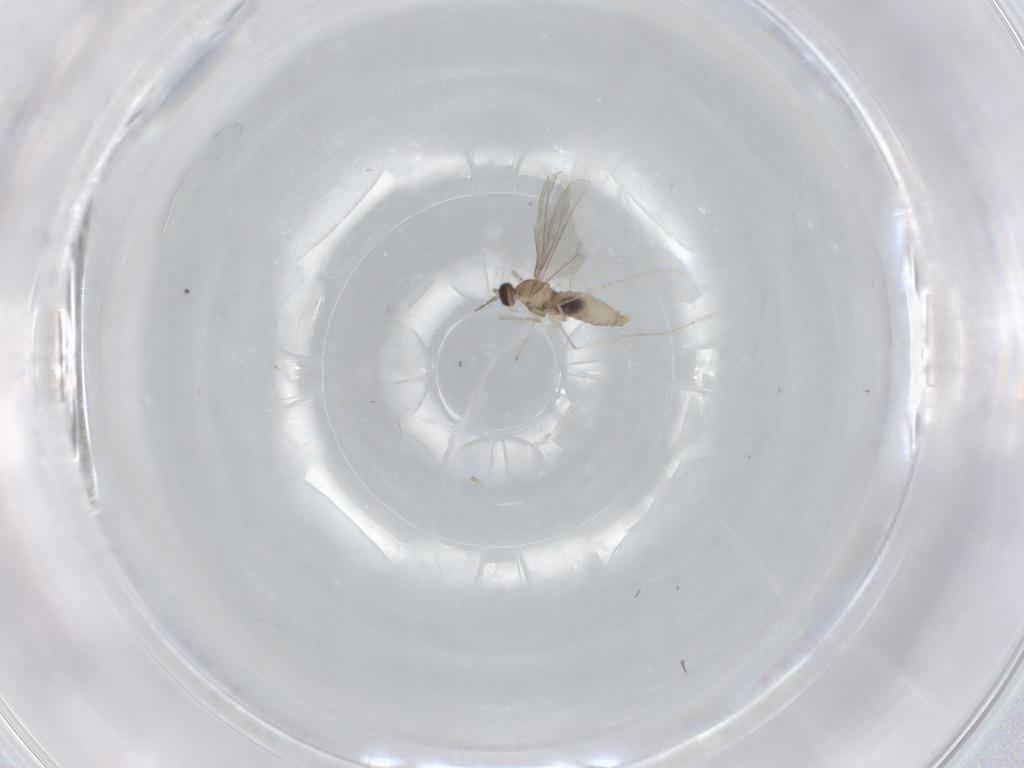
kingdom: Animalia
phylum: Arthropoda
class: Insecta
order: Diptera
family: Cecidomyiidae
